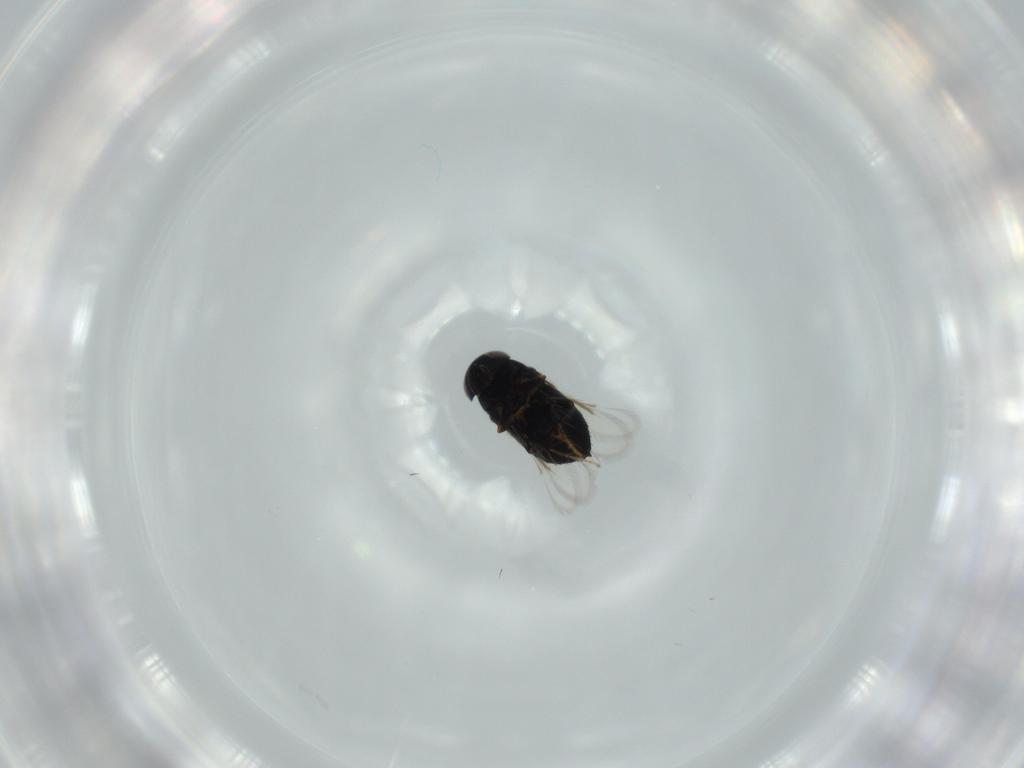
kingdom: Animalia
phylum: Arthropoda
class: Insecta
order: Hymenoptera
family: Signiphoridae
